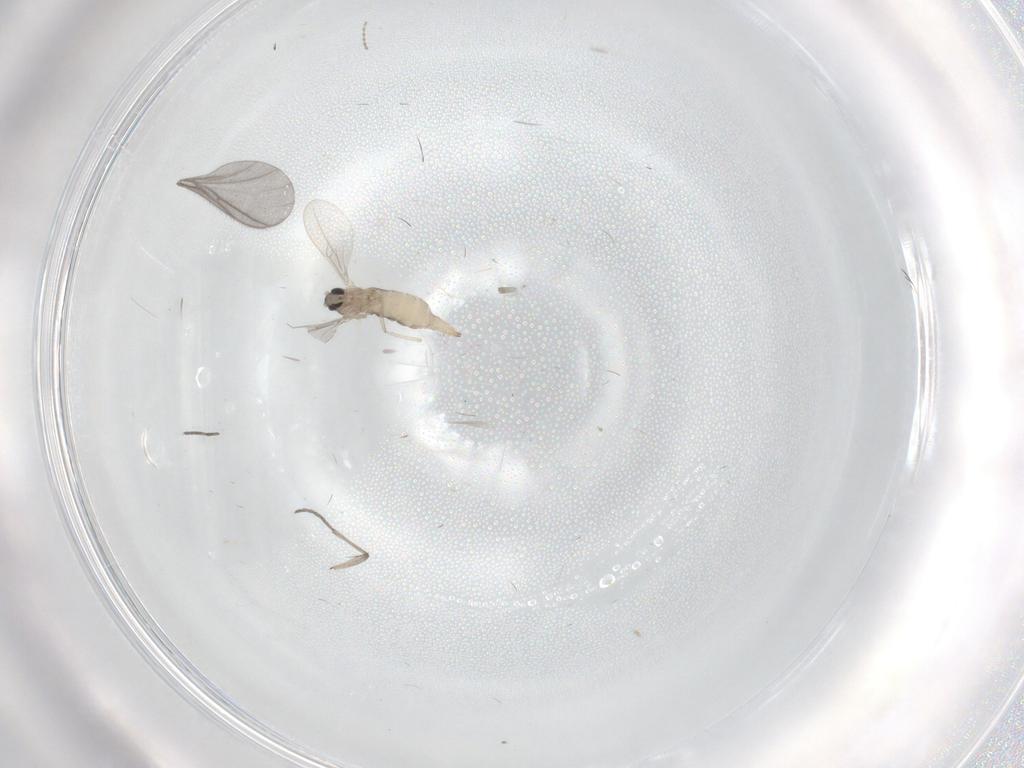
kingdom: Animalia
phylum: Arthropoda
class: Insecta
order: Diptera
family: Cecidomyiidae
